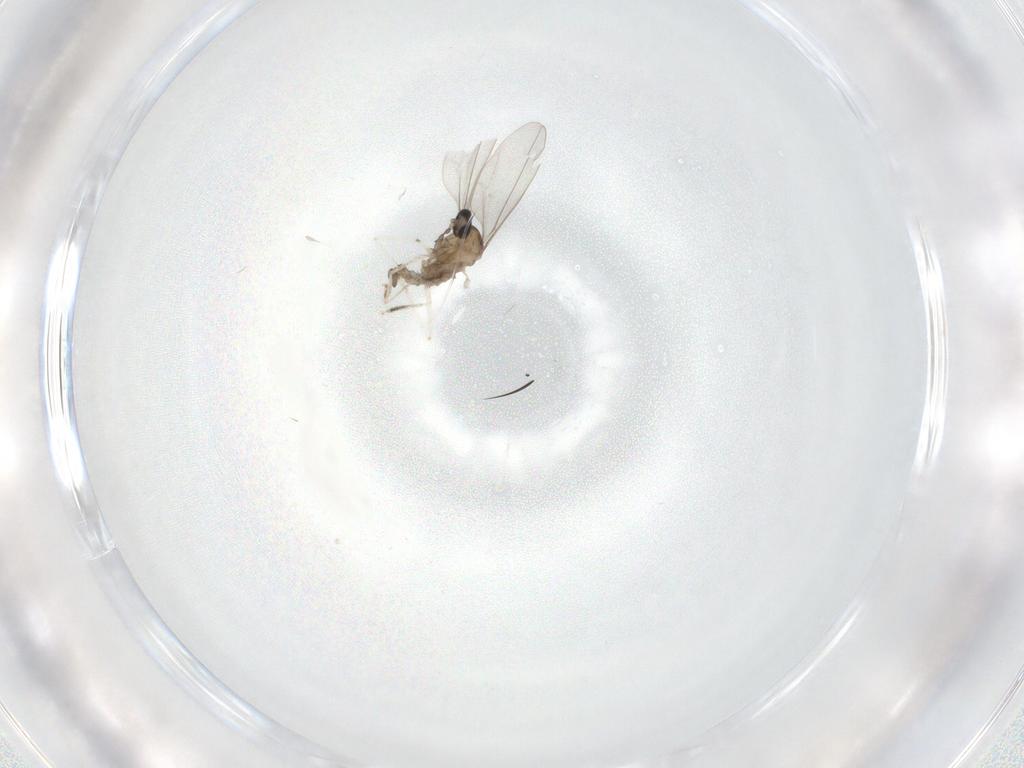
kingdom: Animalia
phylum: Arthropoda
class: Insecta
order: Diptera
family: Cecidomyiidae
